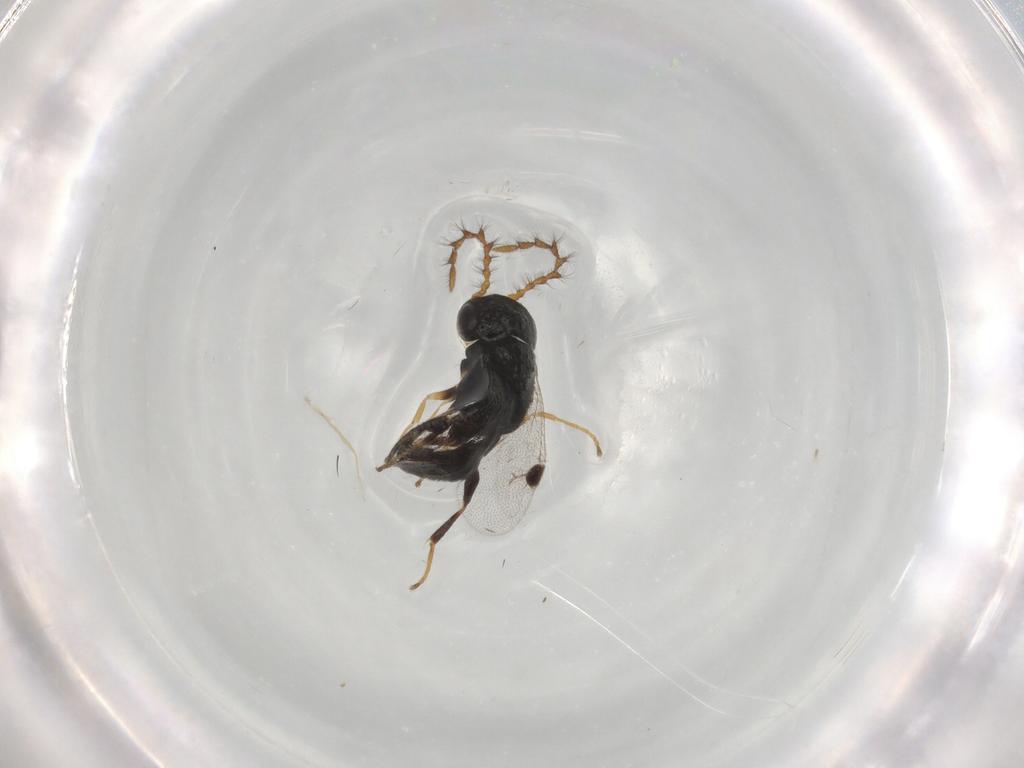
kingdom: Animalia
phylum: Arthropoda
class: Insecta
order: Hymenoptera
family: Dryinidae
